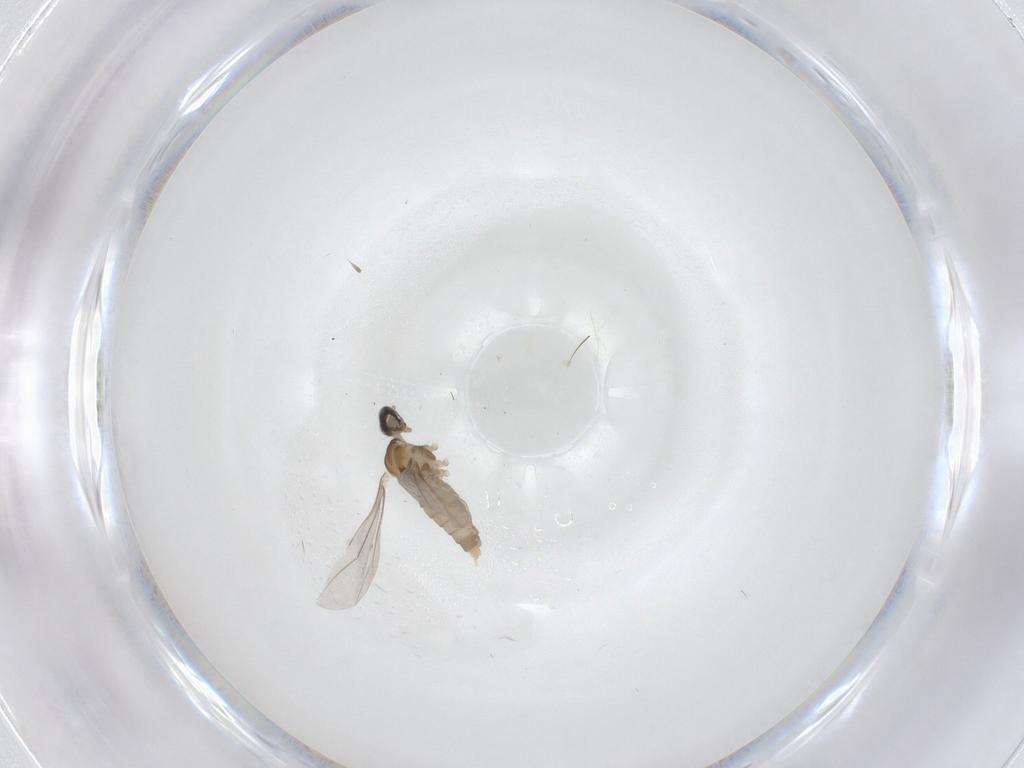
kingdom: Animalia
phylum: Arthropoda
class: Insecta
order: Diptera
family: Cecidomyiidae
